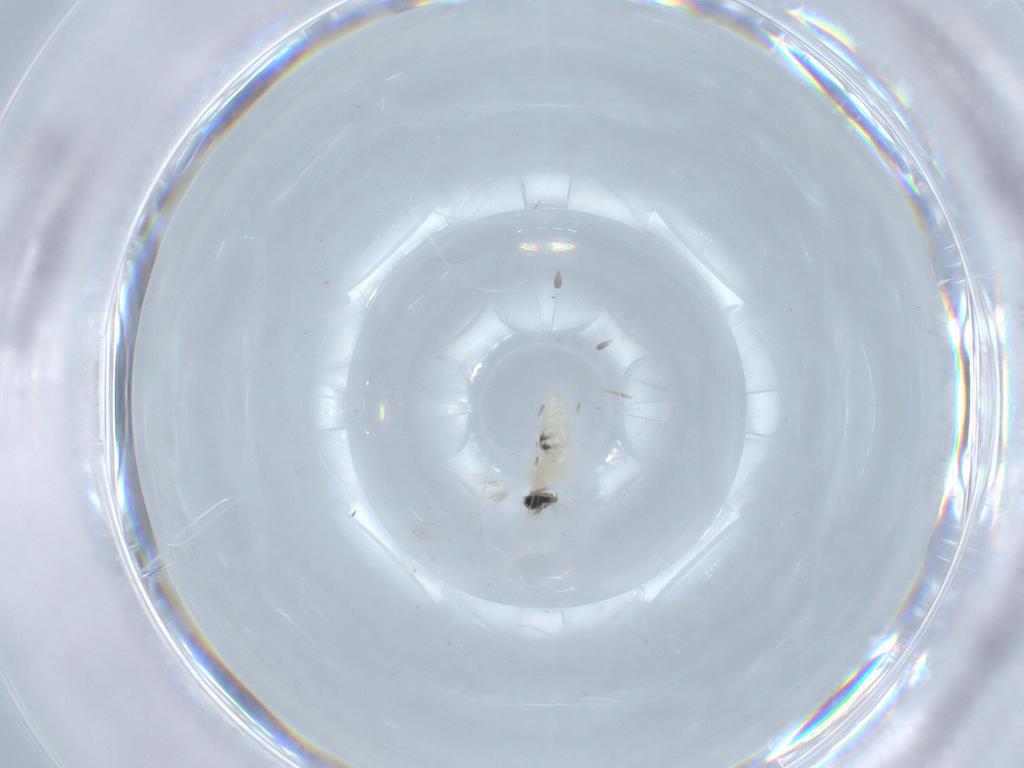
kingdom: Animalia
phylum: Arthropoda
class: Insecta
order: Diptera
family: Cecidomyiidae
